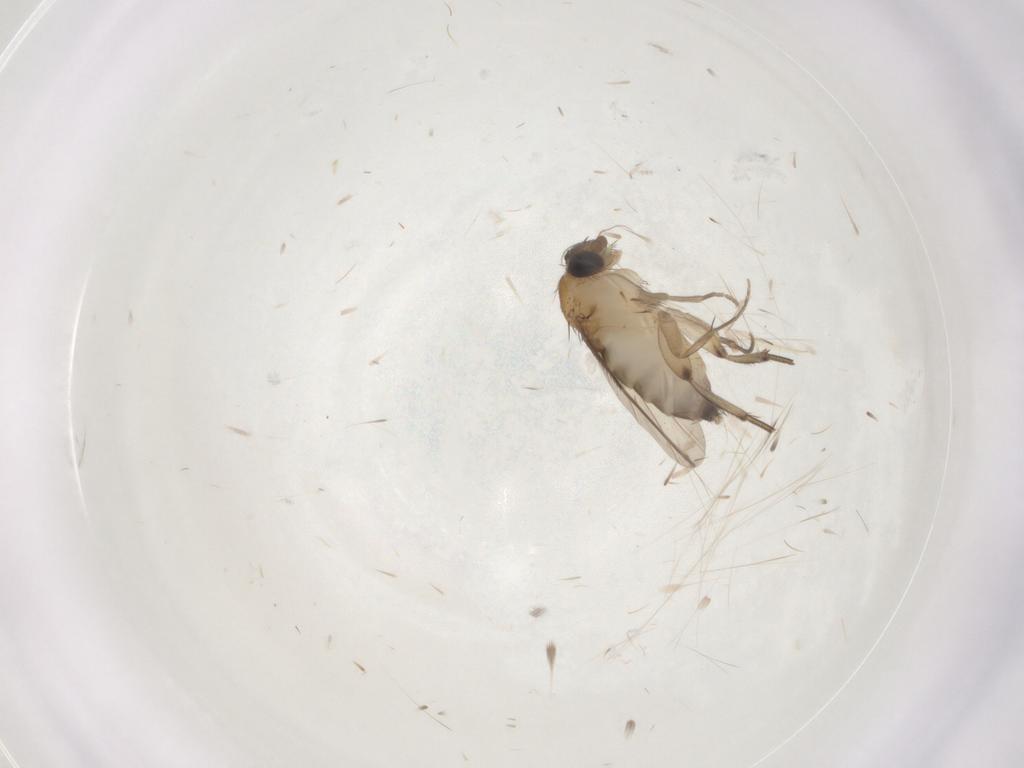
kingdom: Animalia
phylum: Arthropoda
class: Insecta
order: Diptera
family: Phoridae
